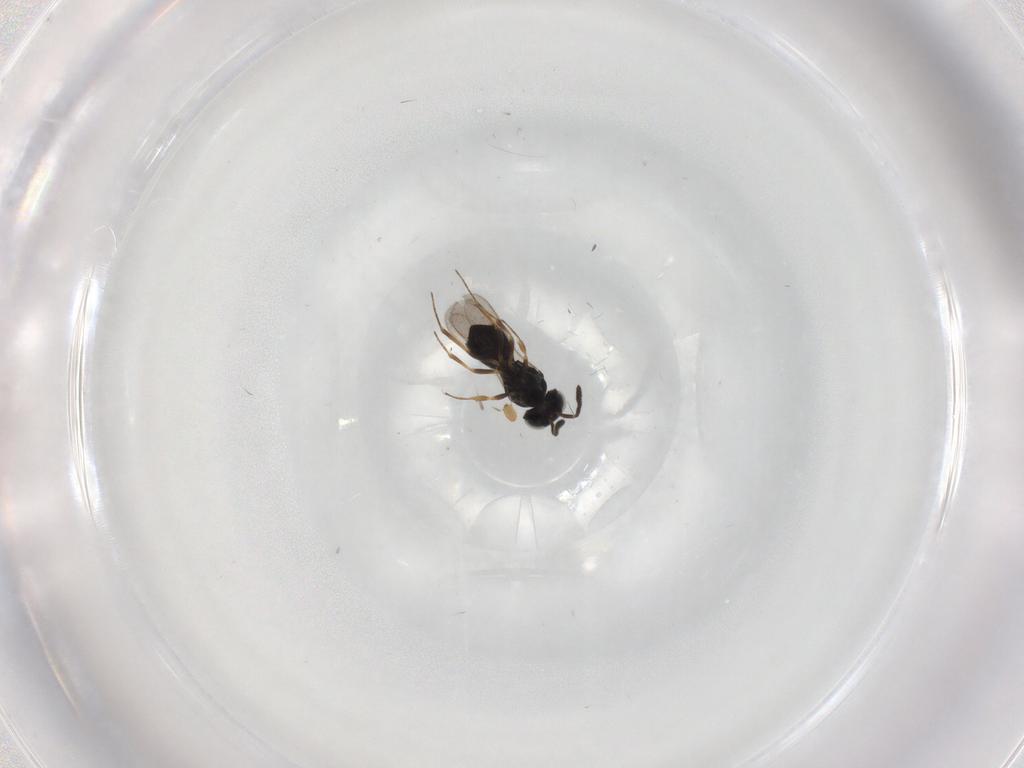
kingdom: Animalia
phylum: Arthropoda
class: Insecta
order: Hymenoptera
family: Scelionidae
